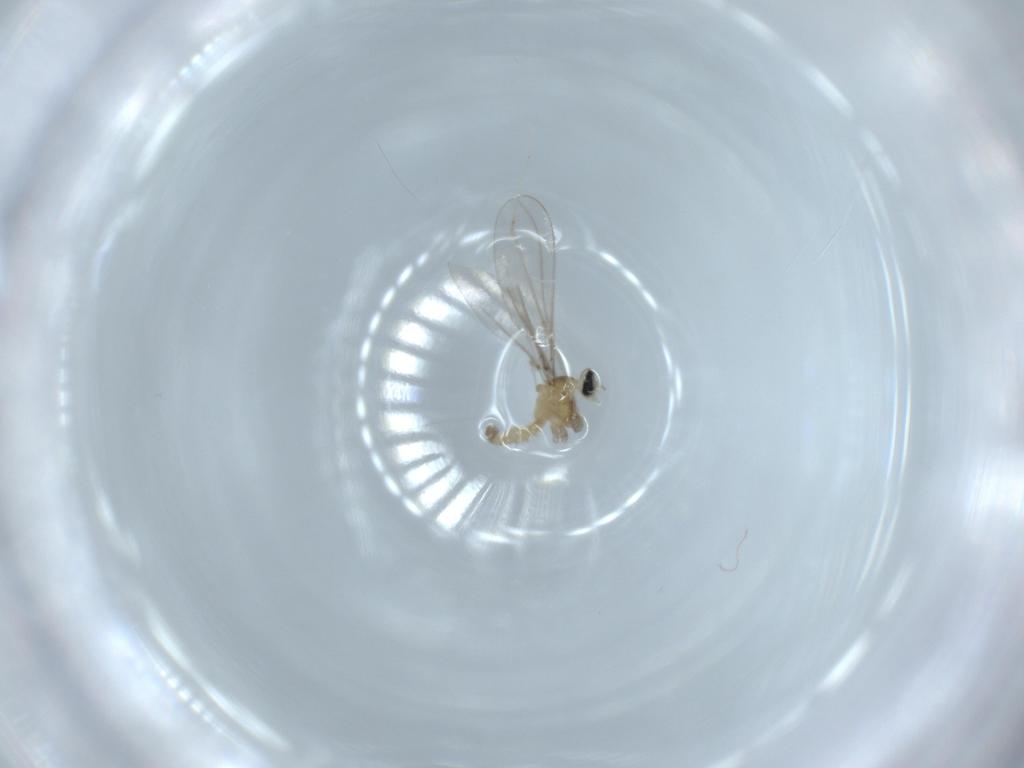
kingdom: Animalia
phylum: Arthropoda
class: Insecta
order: Diptera
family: Cecidomyiidae
